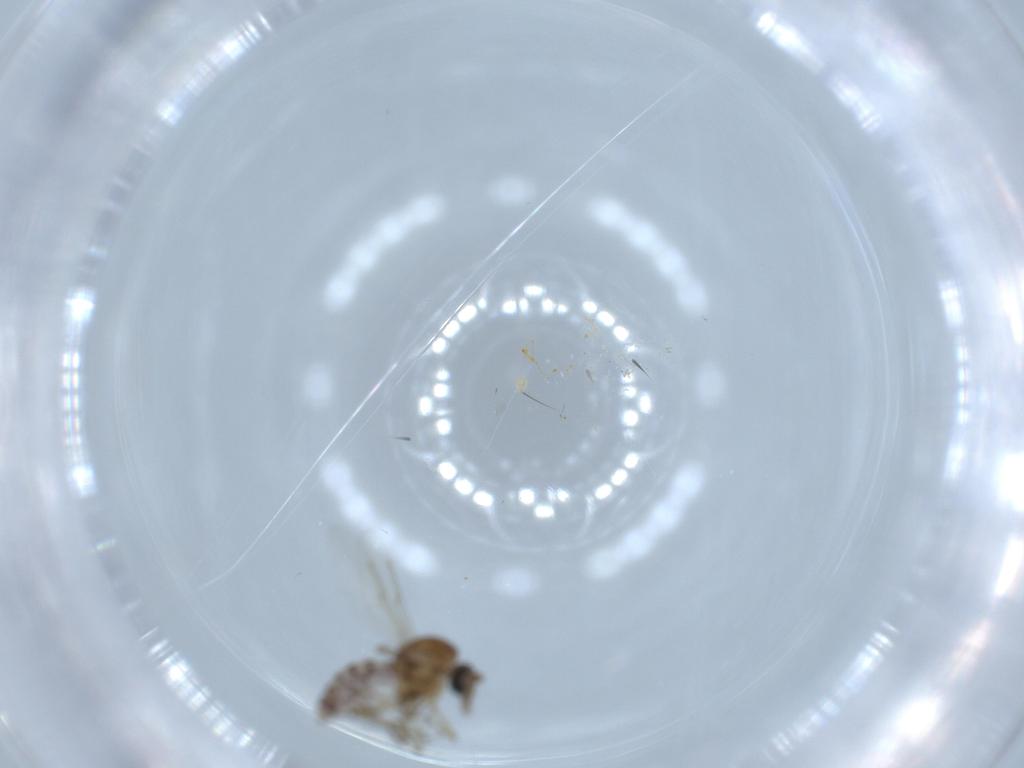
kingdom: Animalia
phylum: Arthropoda
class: Insecta
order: Diptera
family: Ceratopogonidae
